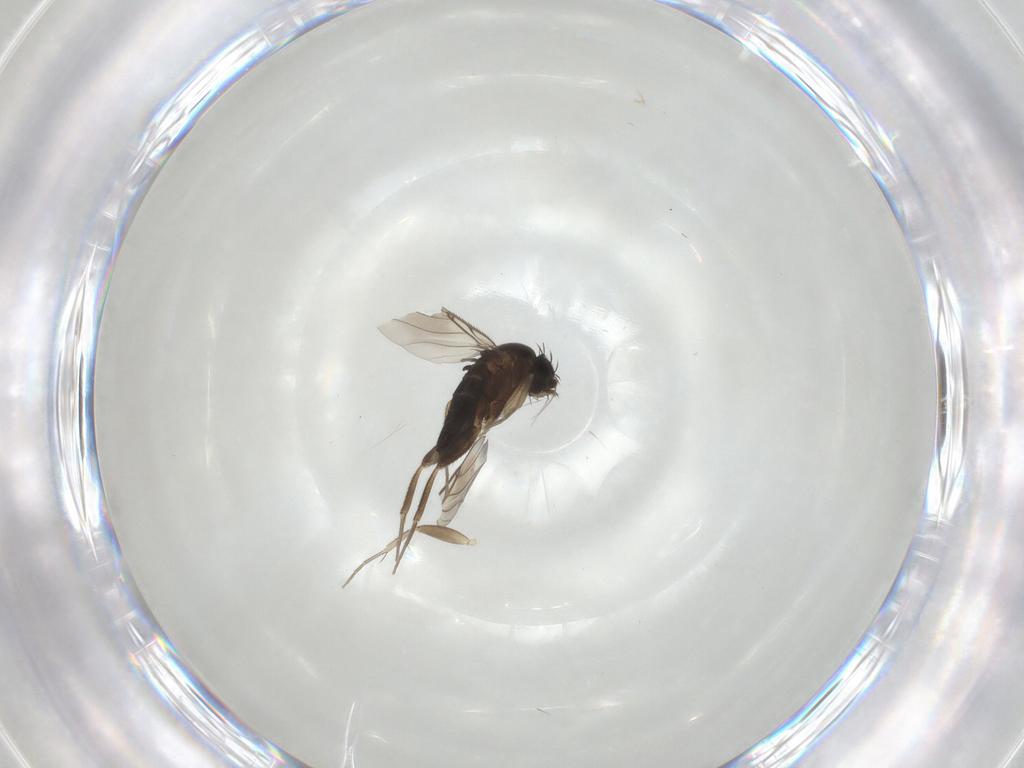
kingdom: Animalia
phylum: Arthropoda
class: Insecta
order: Diptera
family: Phoridae
